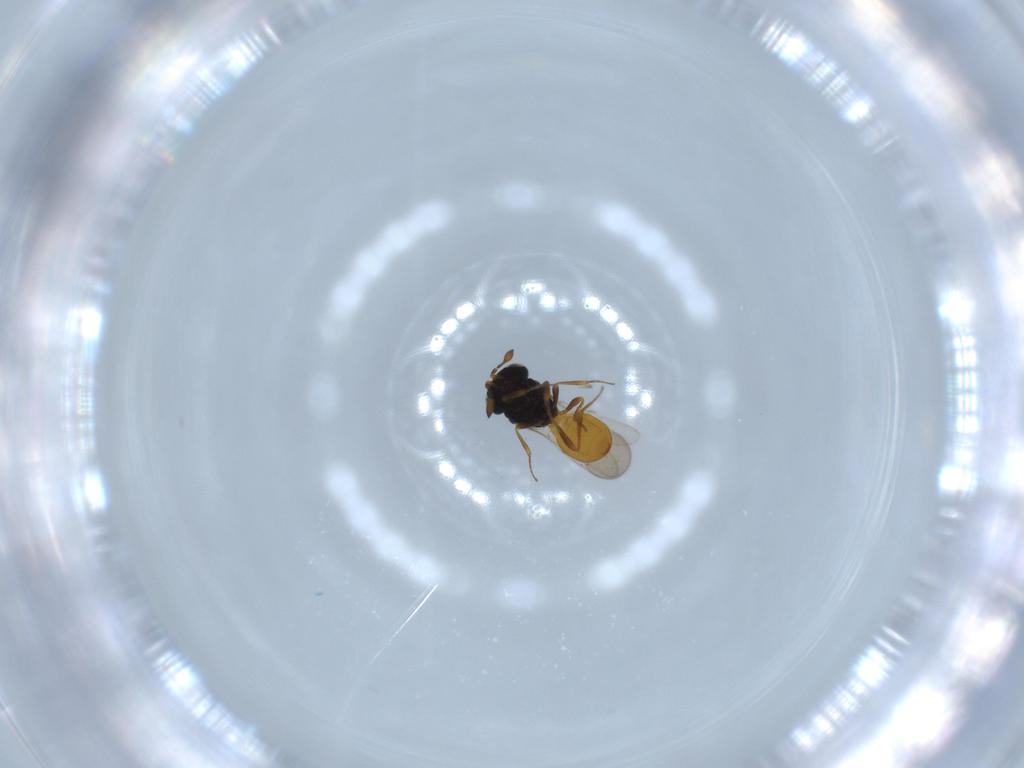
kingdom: Animalia
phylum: Arthropoda
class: Insecta
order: Hymenoptera
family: Scelionidae
